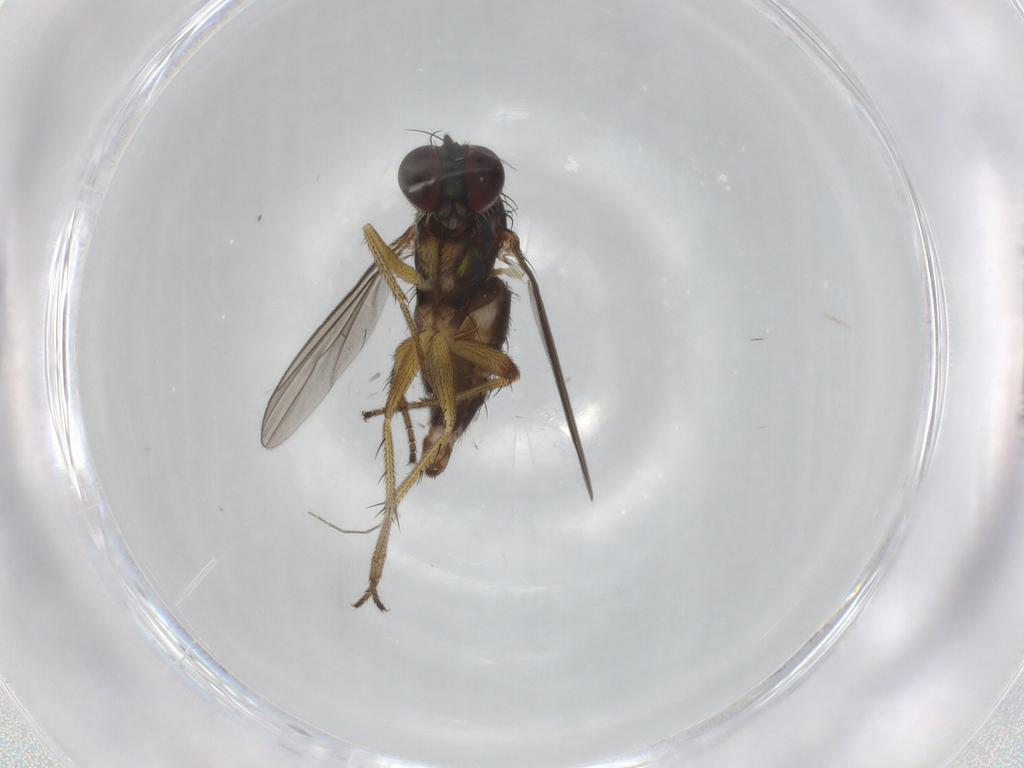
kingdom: Animalia
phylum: Arthropoda
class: Insecta
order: Diptera
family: Dolichopodidae
